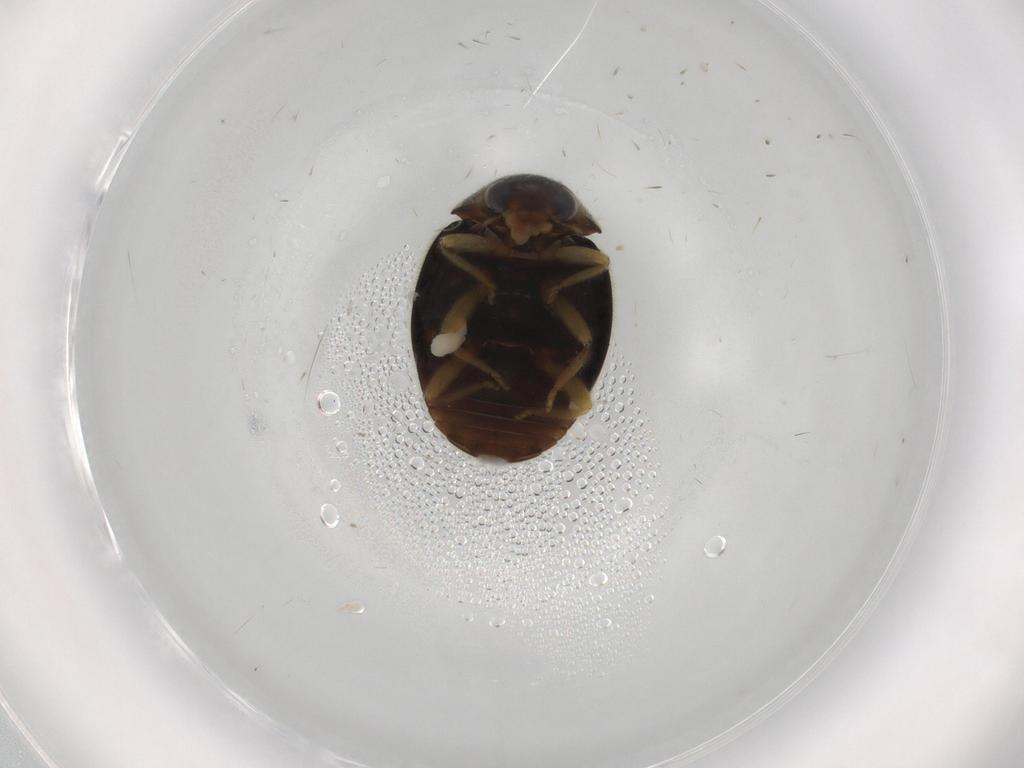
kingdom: Animalia
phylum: Arthropoda
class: Insecta
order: Coleoptera
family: Coccinellidae
